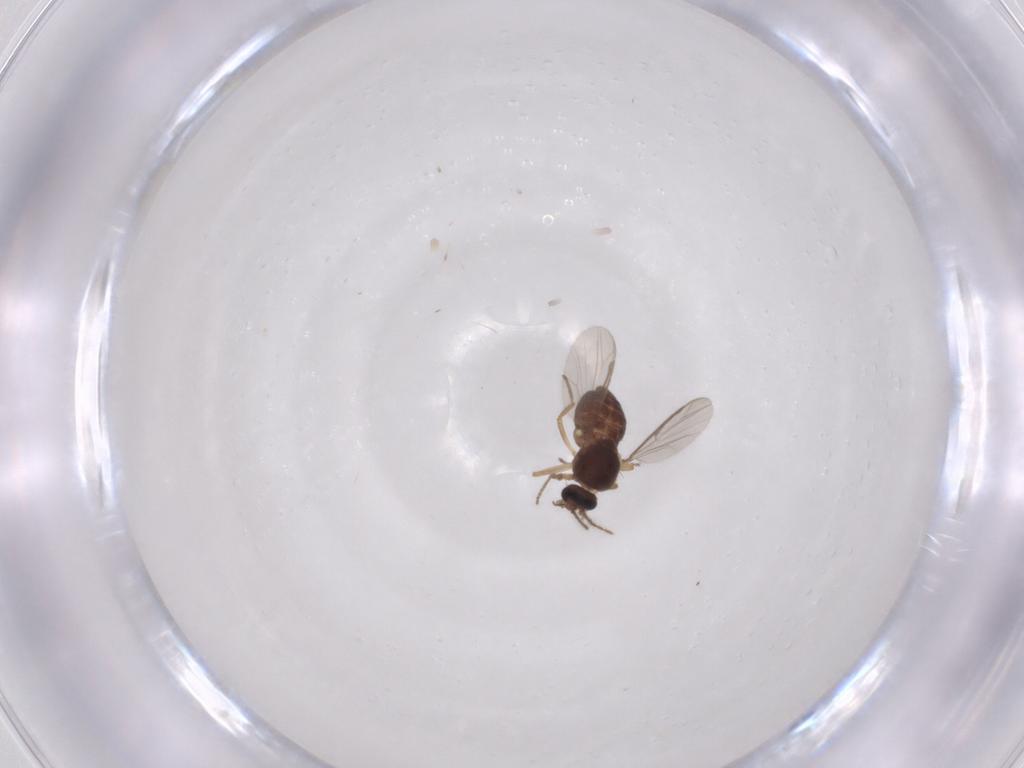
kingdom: Animalia
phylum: Arthropoda
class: Insecta
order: Diptera
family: Ceratopogonidae
